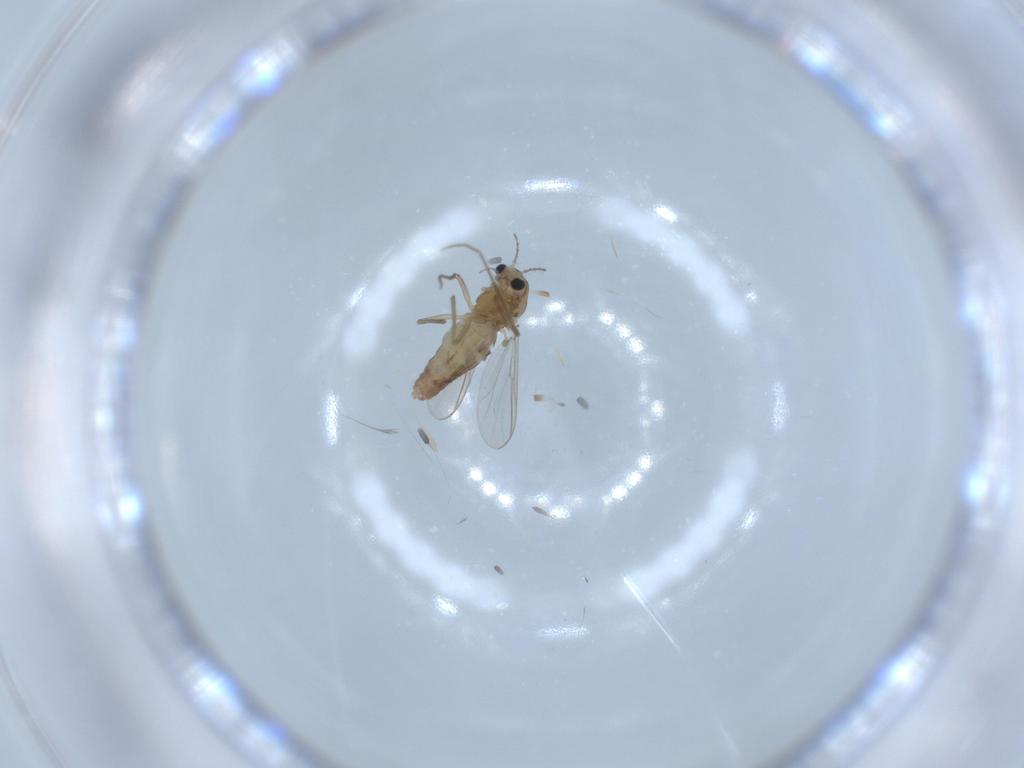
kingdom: Animalia
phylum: Arthropoda
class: Insecta
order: Diptera
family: Chironomidae
